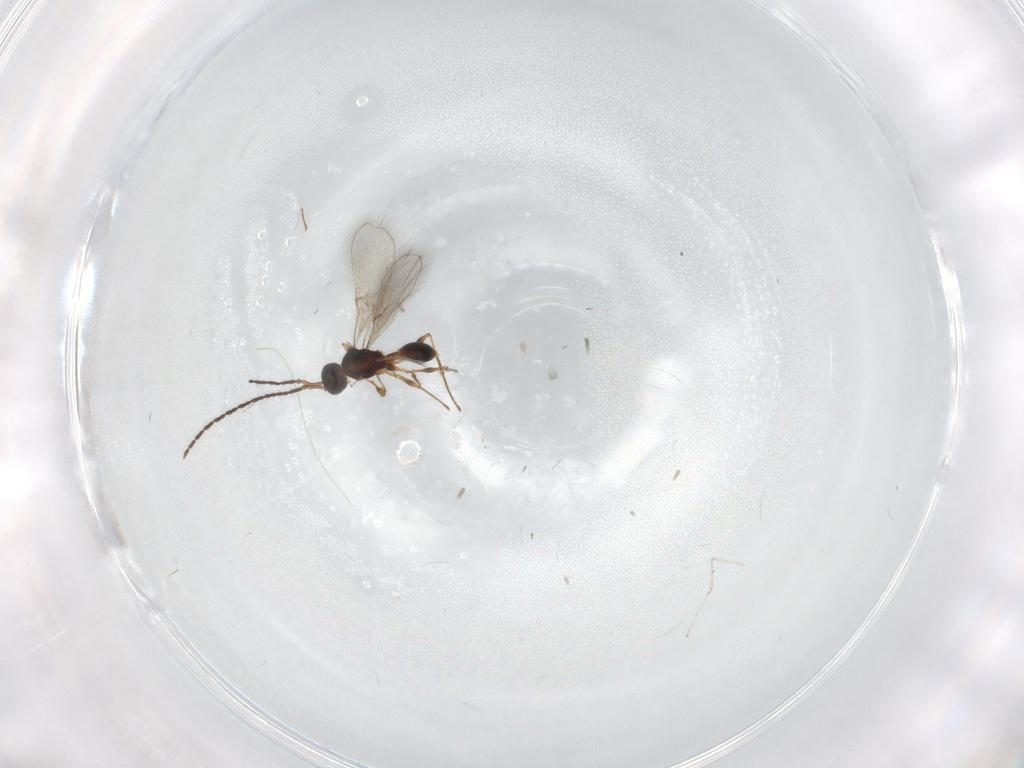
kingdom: Animalia
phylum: Arthropoda
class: Insecta
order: Hymenoptera
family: Diapriidae
